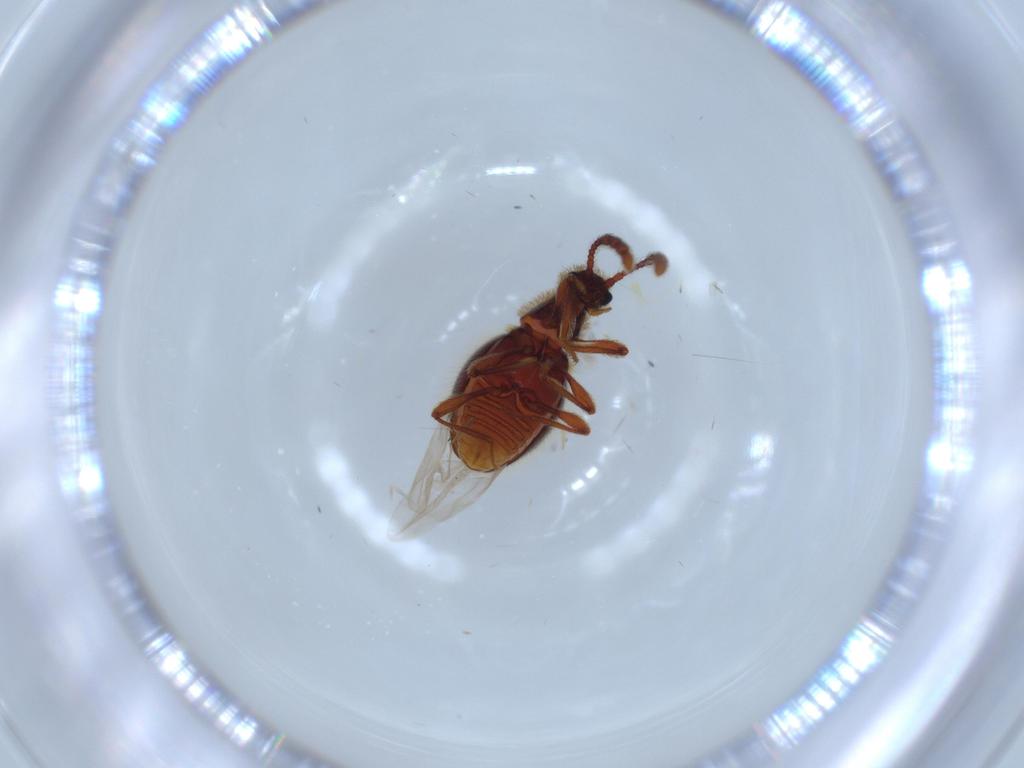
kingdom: Animalia
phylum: Arthropoda
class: Insecta
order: Coleoptera
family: Staphylinidae
